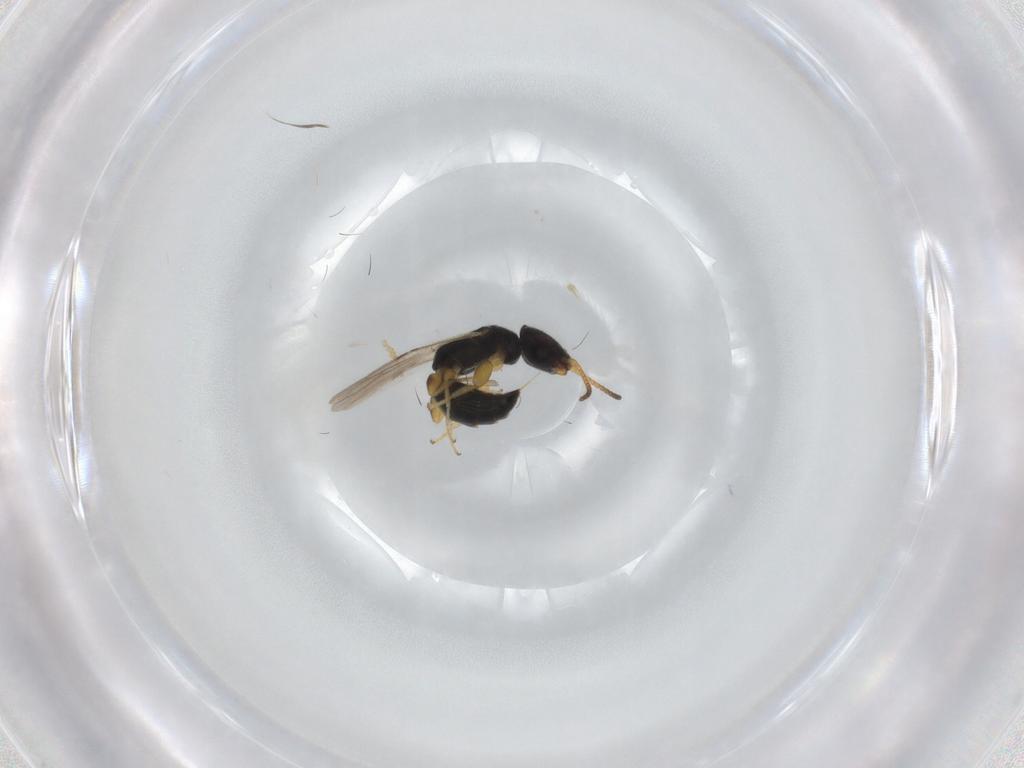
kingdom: Animalia
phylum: Arthropoda
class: Insecta
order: Hymenoptera
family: Bethylidae
